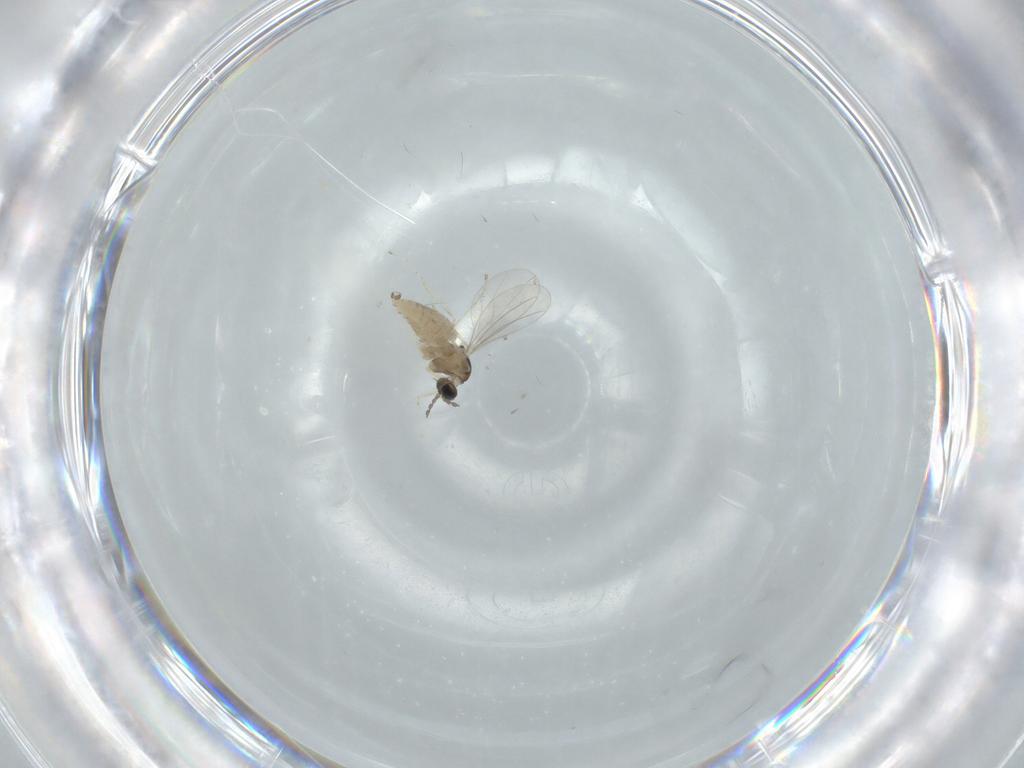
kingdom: Animalia
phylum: Arthropoda
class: Insecta
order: Diptera
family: Cecidomyiidae
